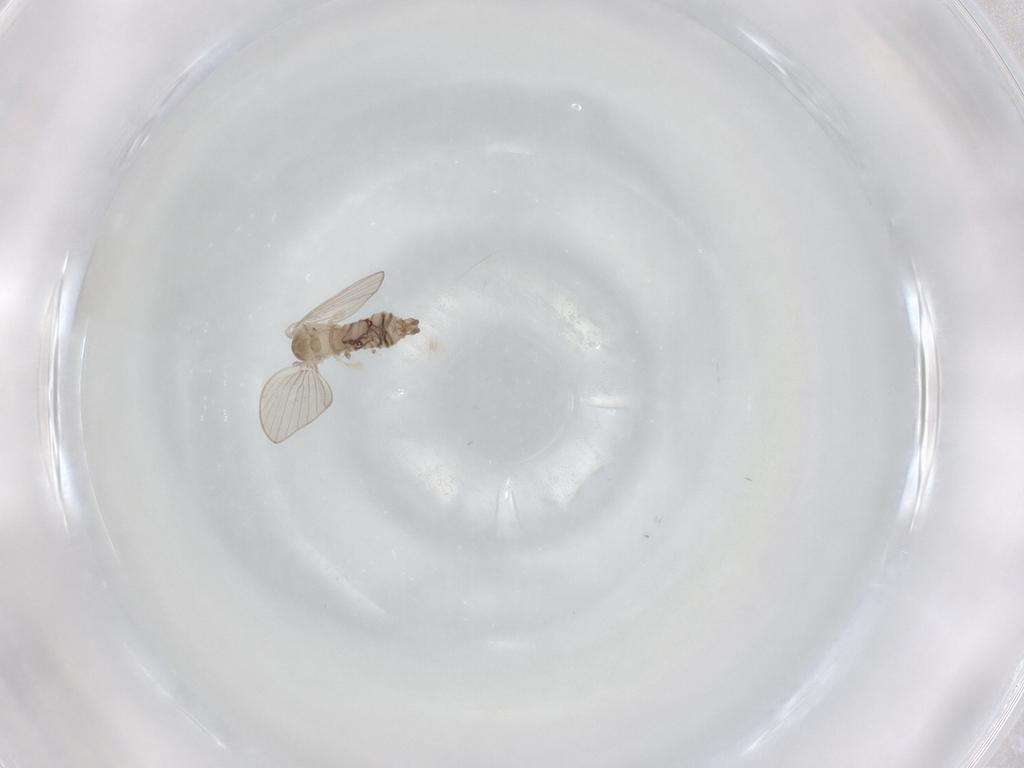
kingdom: Animalia
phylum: Arthropoda
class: Insecta
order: Diptera
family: Psychodidae
